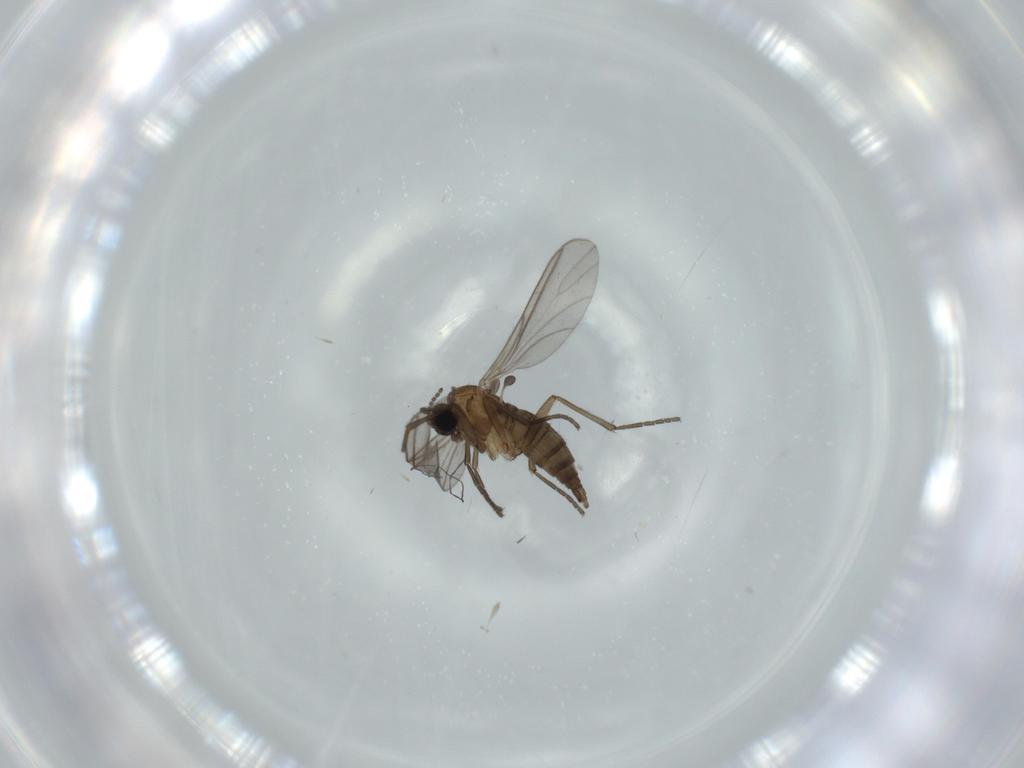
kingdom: Animalia
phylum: Arthropoda
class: Insecta
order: Diptera
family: Sciaridae
